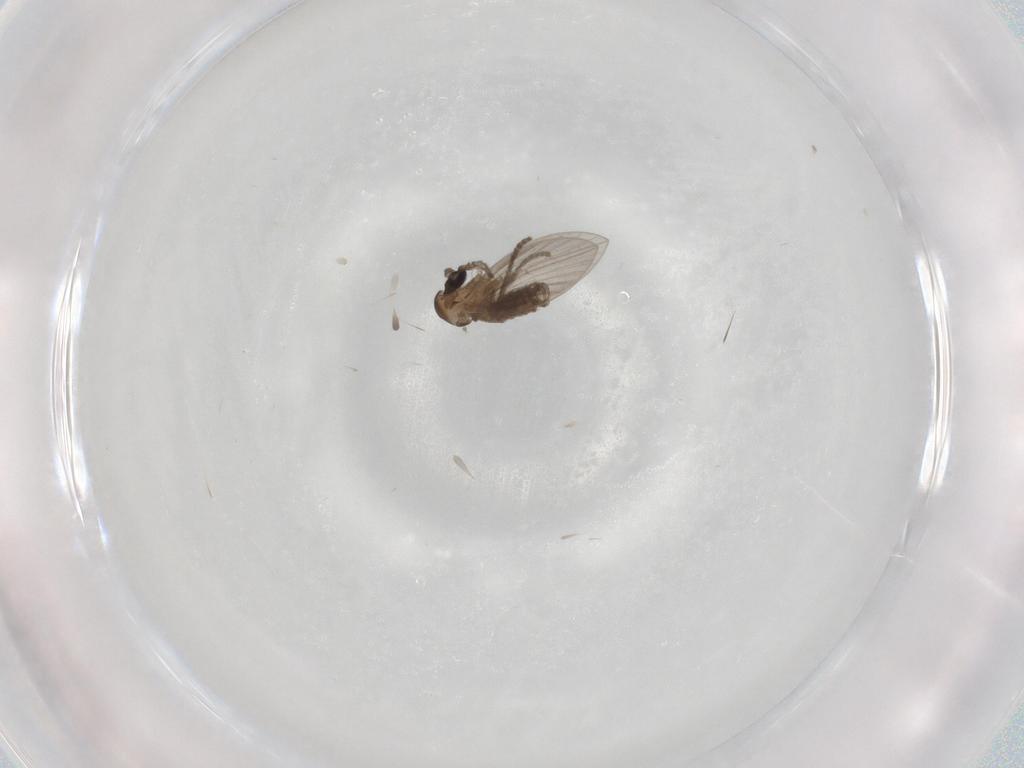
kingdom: Animalia
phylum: Arthropoda
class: Insecta
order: Diptera
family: Psychodidae
